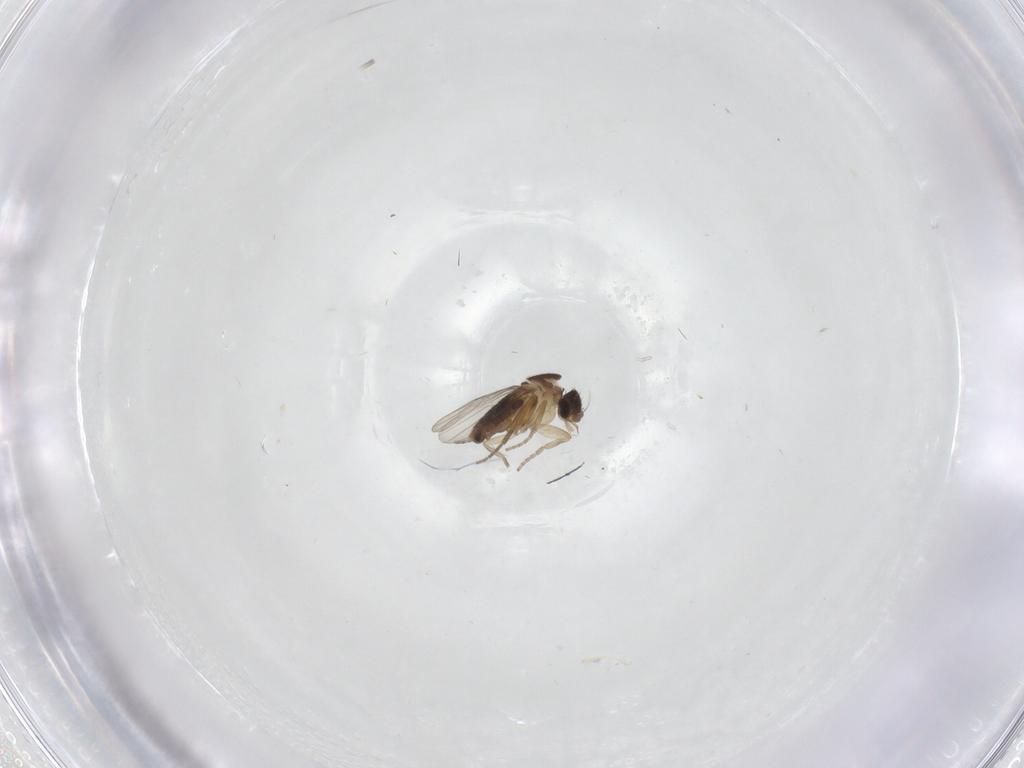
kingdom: Animalia
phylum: Arthropoda
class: Insecta
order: Diptera
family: Phoridae
